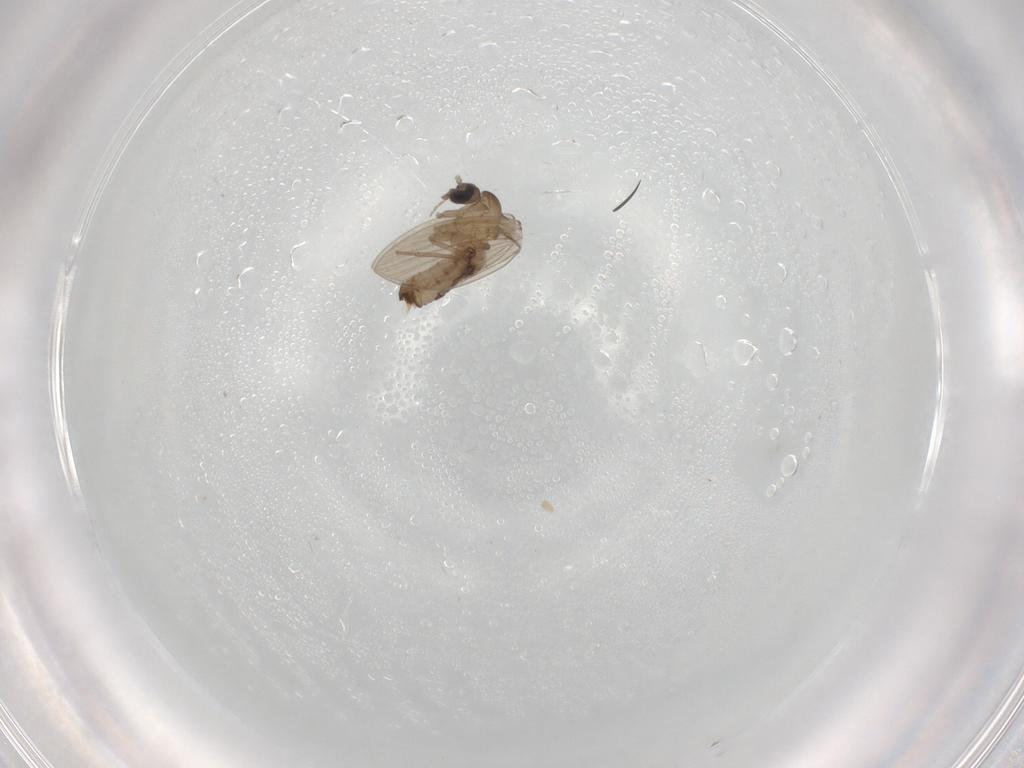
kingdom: Animalia
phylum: Arthropoda
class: Insecta
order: Diptera
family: Psychodidae
